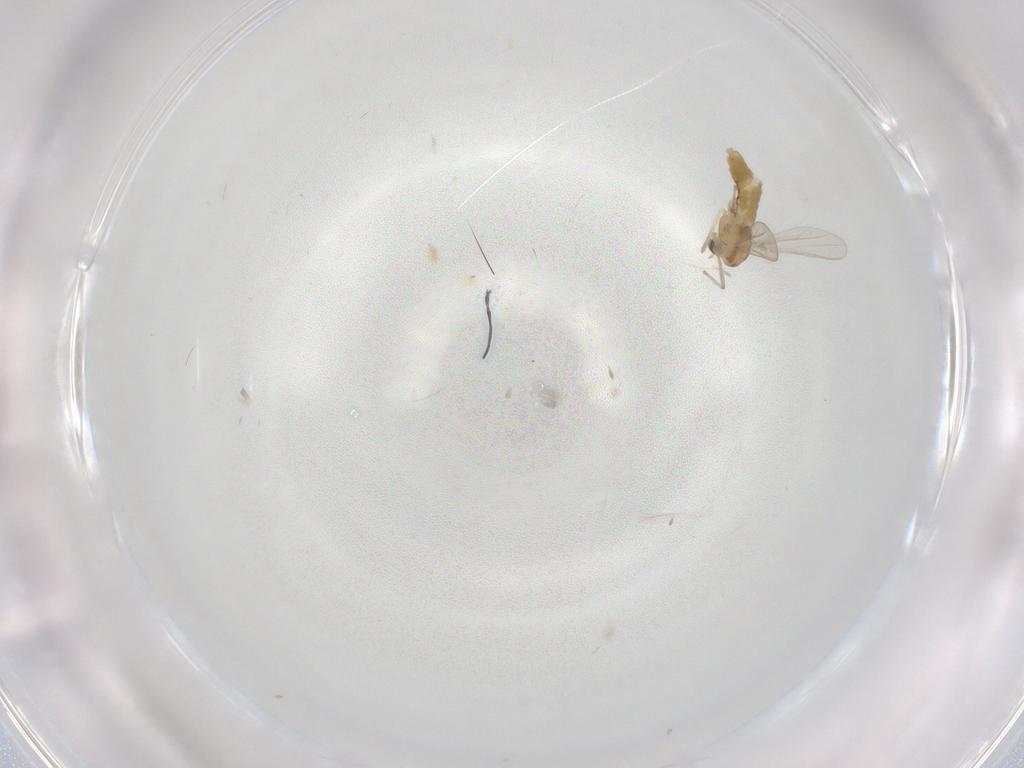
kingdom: Animalia
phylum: Arthropoda
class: Insecta
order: Diptera
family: Chironomidae
